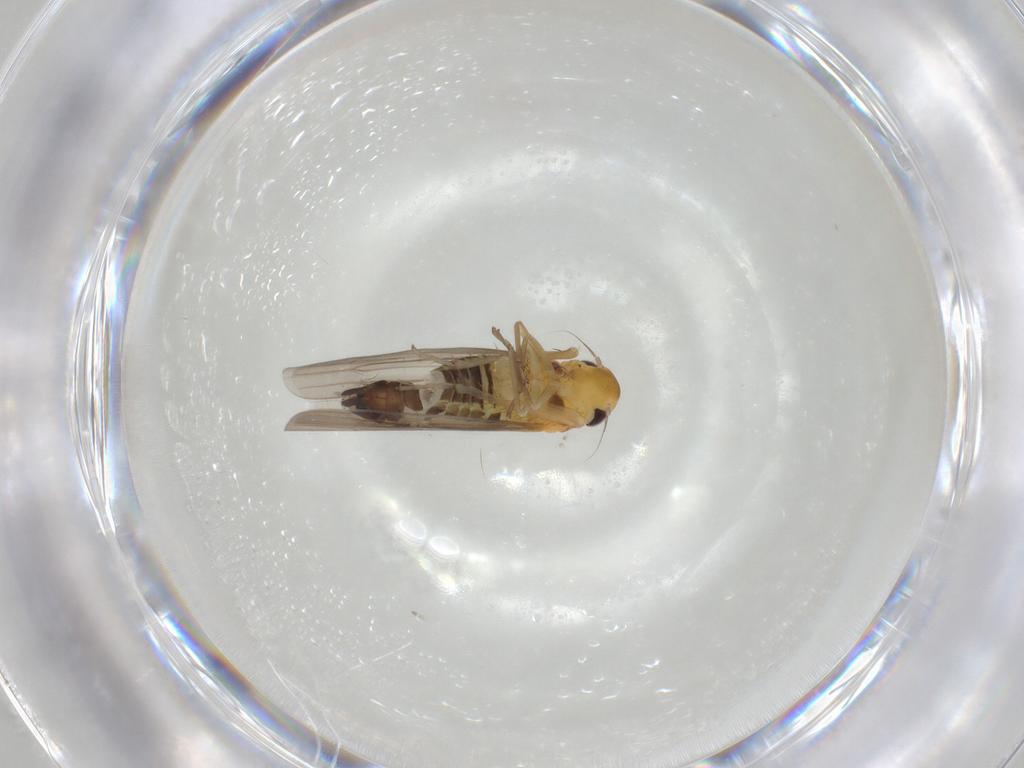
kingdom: Animalia
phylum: Arthropoda
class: Insecta
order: Hemiptera
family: Cicadellidae
